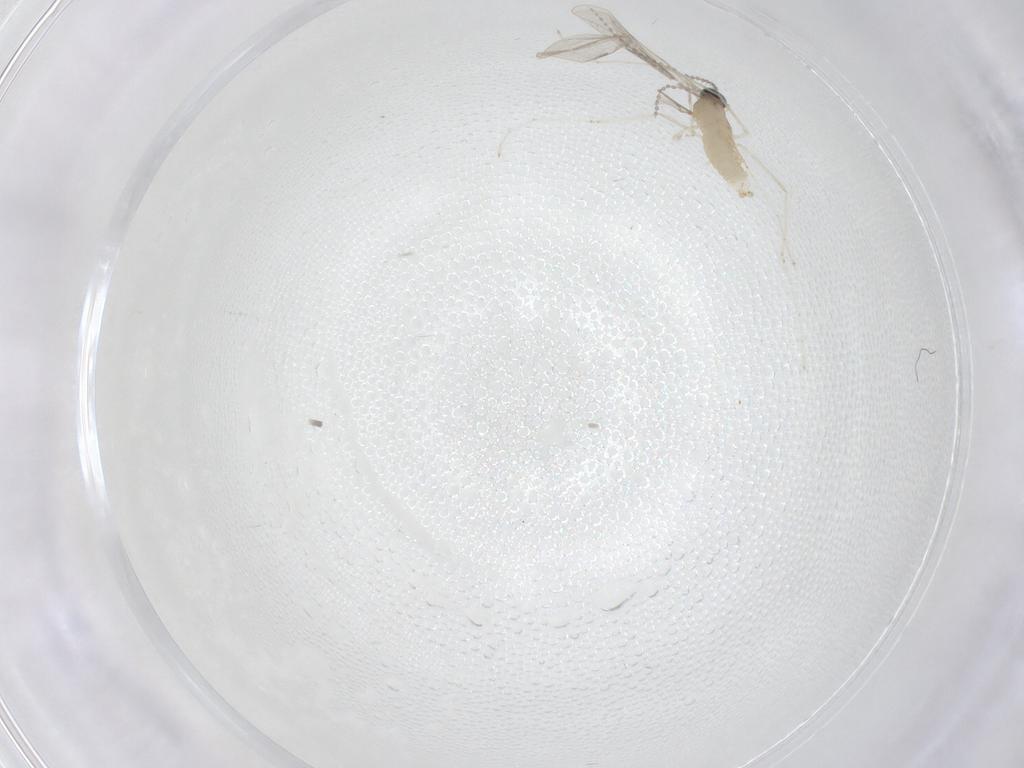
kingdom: Animalia
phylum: Arthropoda
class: Insecta
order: Diptera
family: Cecidomyiidae
